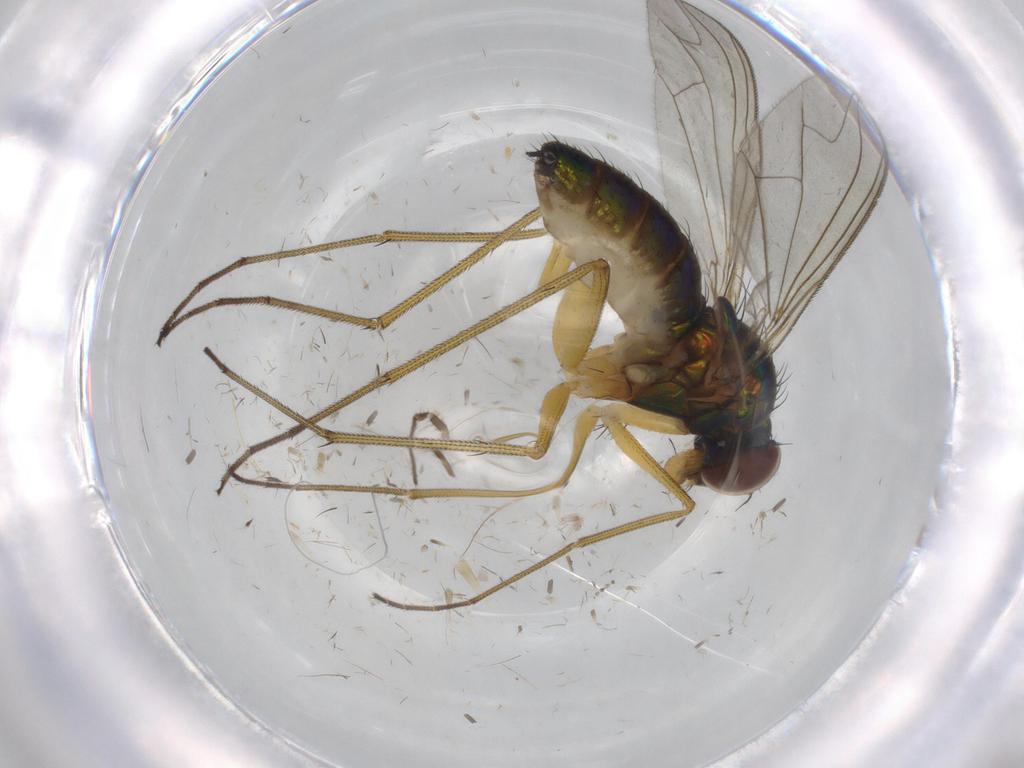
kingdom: Animalia
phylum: Arthropoda
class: Insecta
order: Diptera
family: Dolichopodidae
